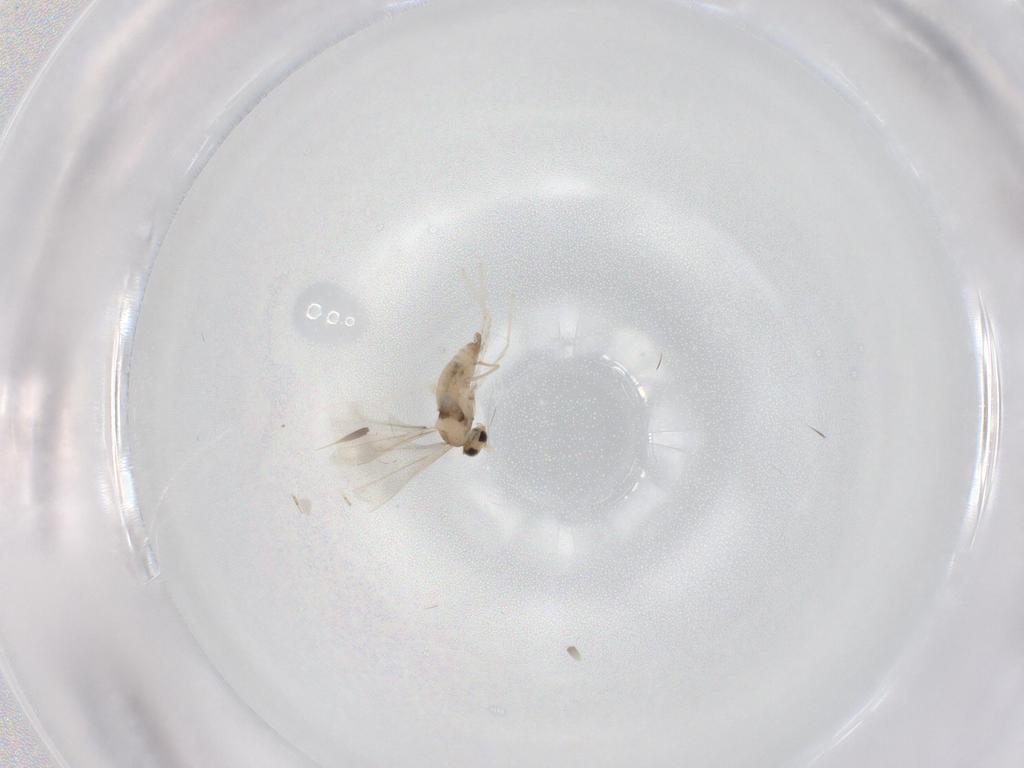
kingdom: Animalia
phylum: Arthropoda
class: Insecta
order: Diptera
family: Cecidomyiidae
